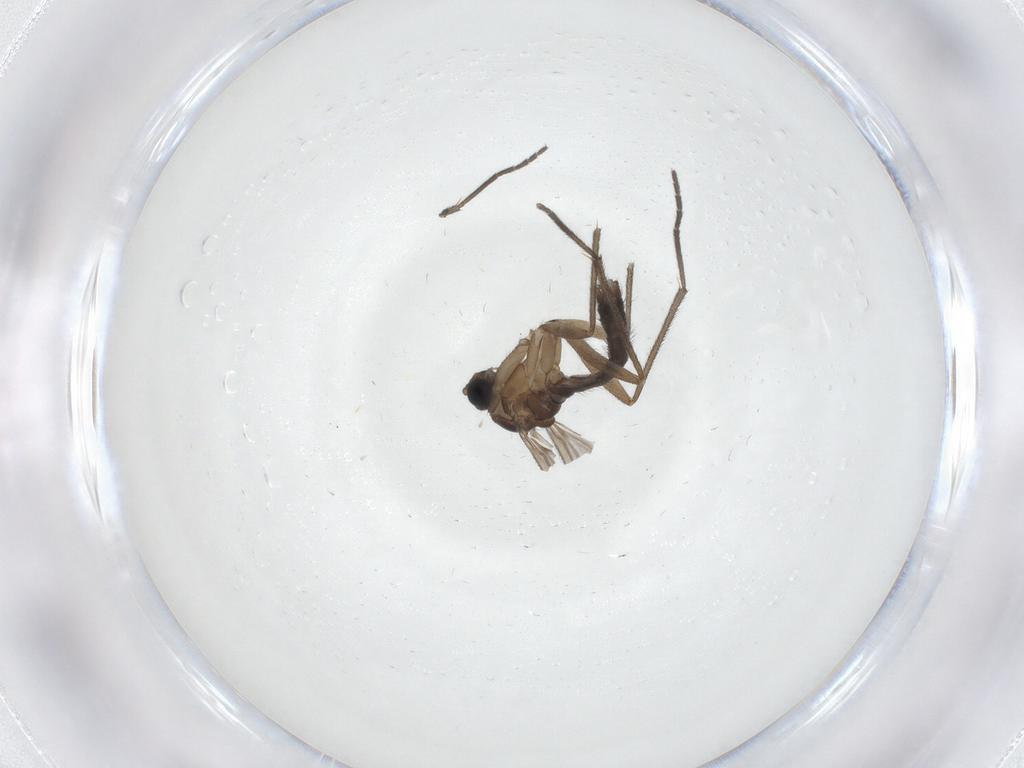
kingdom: Animalia
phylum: Arthropoda
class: Insecta
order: Diptera
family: Sciaridae
